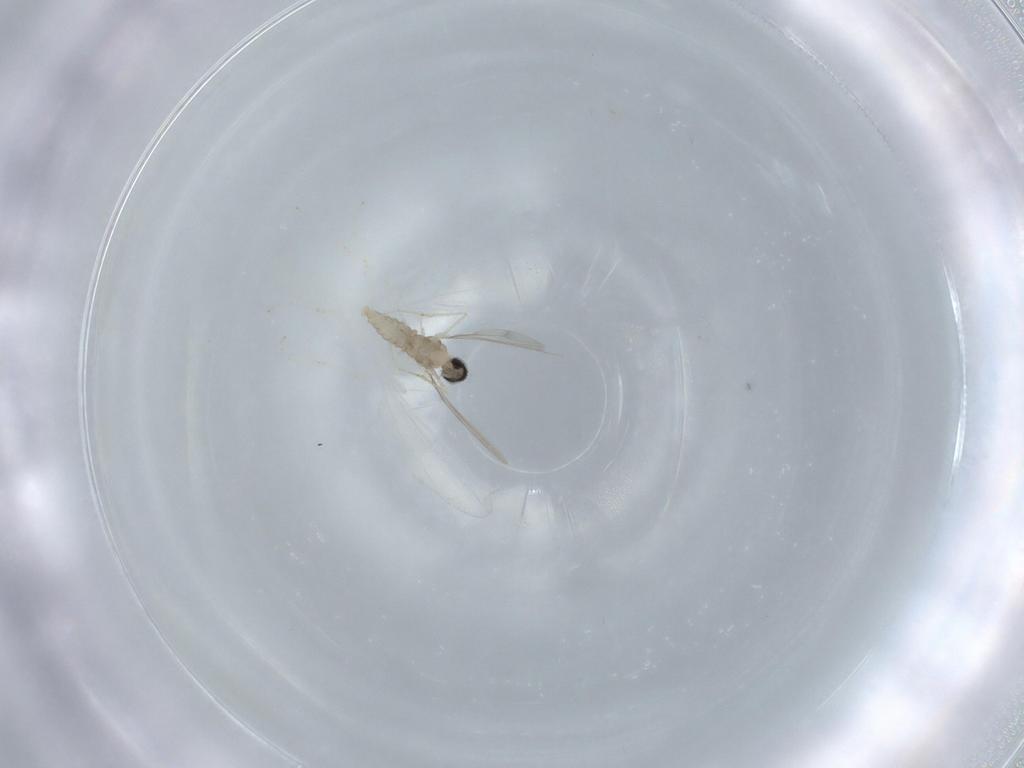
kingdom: Animalia
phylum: Arthropoda
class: Insecta
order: Diptera
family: Cecidomyiidae
